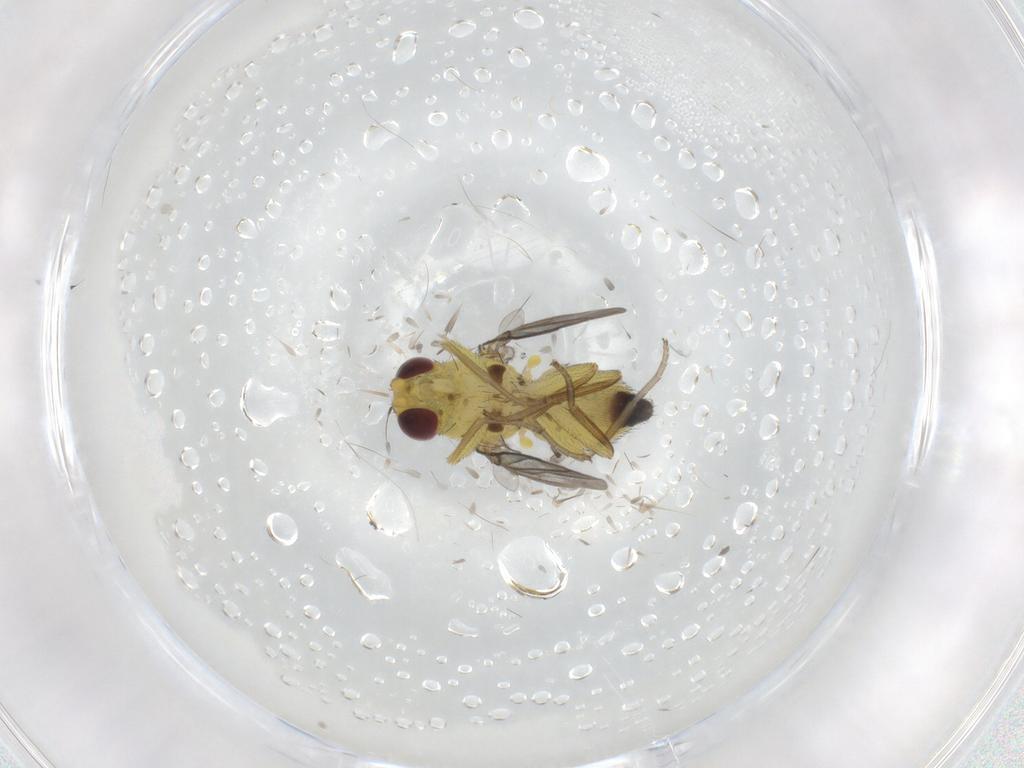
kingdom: Animalia
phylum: Arthropoda
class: Insecta
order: Diptera
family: Agromyzidae
